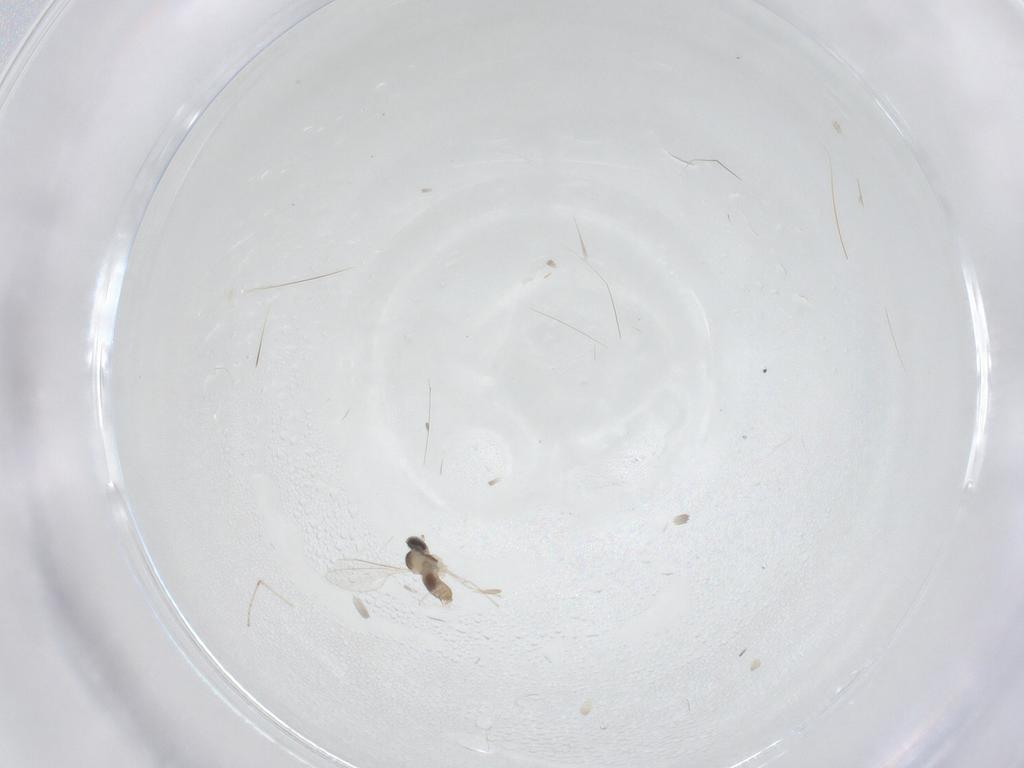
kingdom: Animalia
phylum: Arthropoda
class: Insecta
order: Diptera
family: Cecidomyiidae
